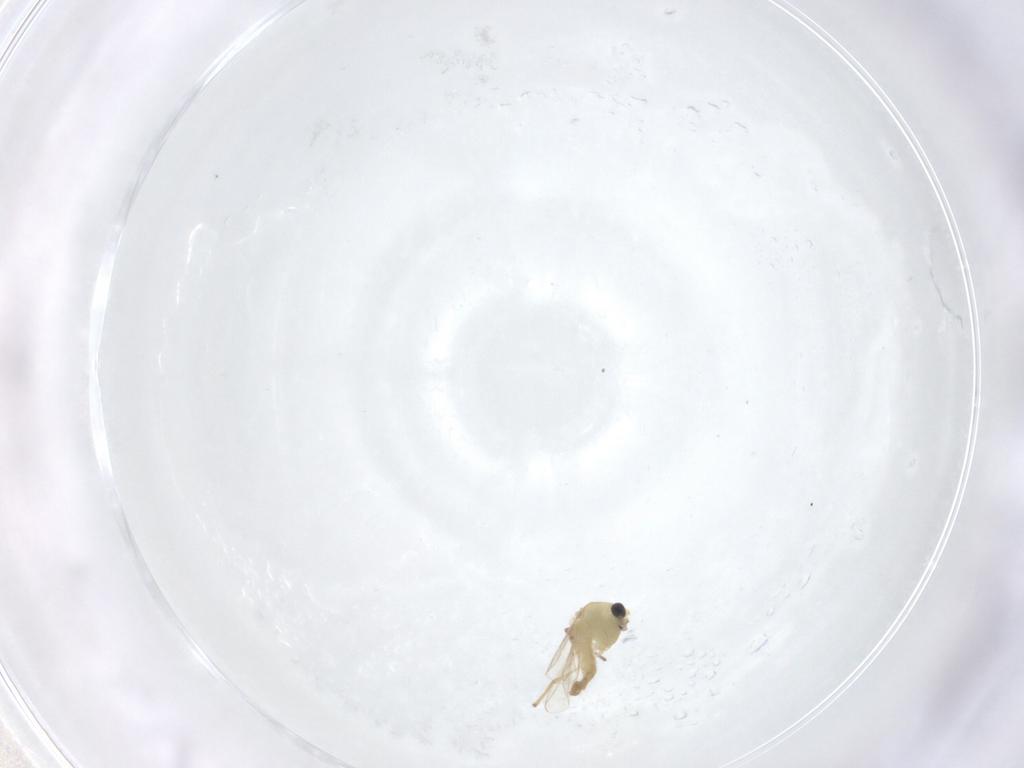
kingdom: Animalia
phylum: Arthropoda
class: Insecta
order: Diptera
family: Chironomidae
